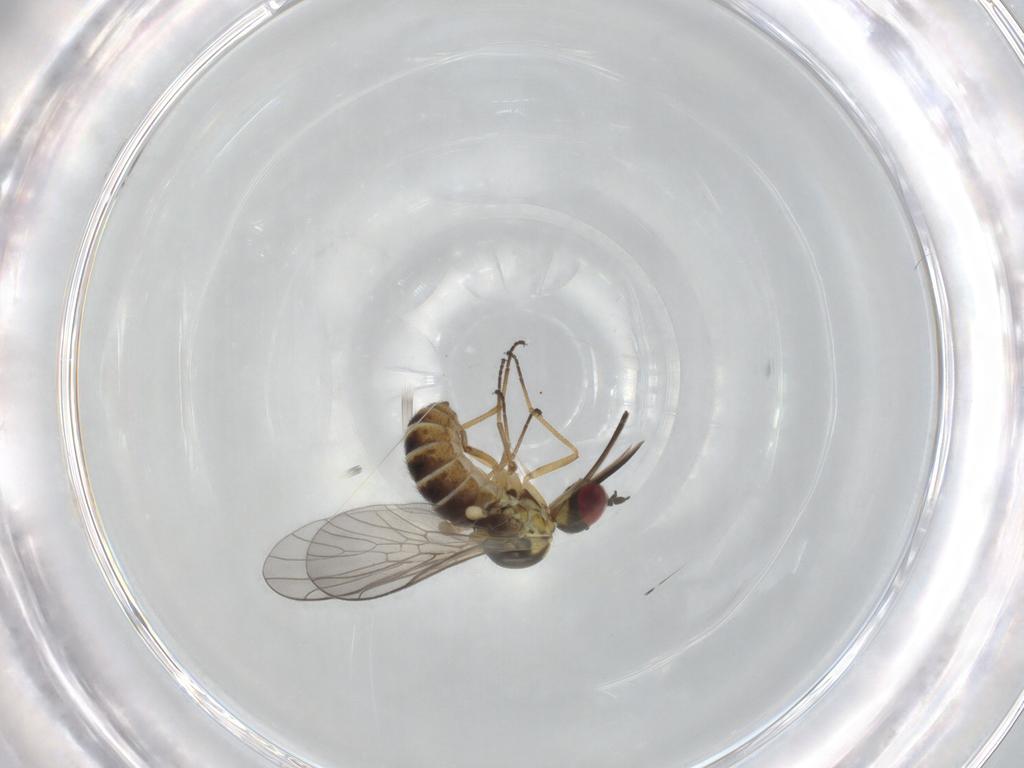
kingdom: Animalia
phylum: Arthropoda
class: Insecta
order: Diptera
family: Bombyliidae
